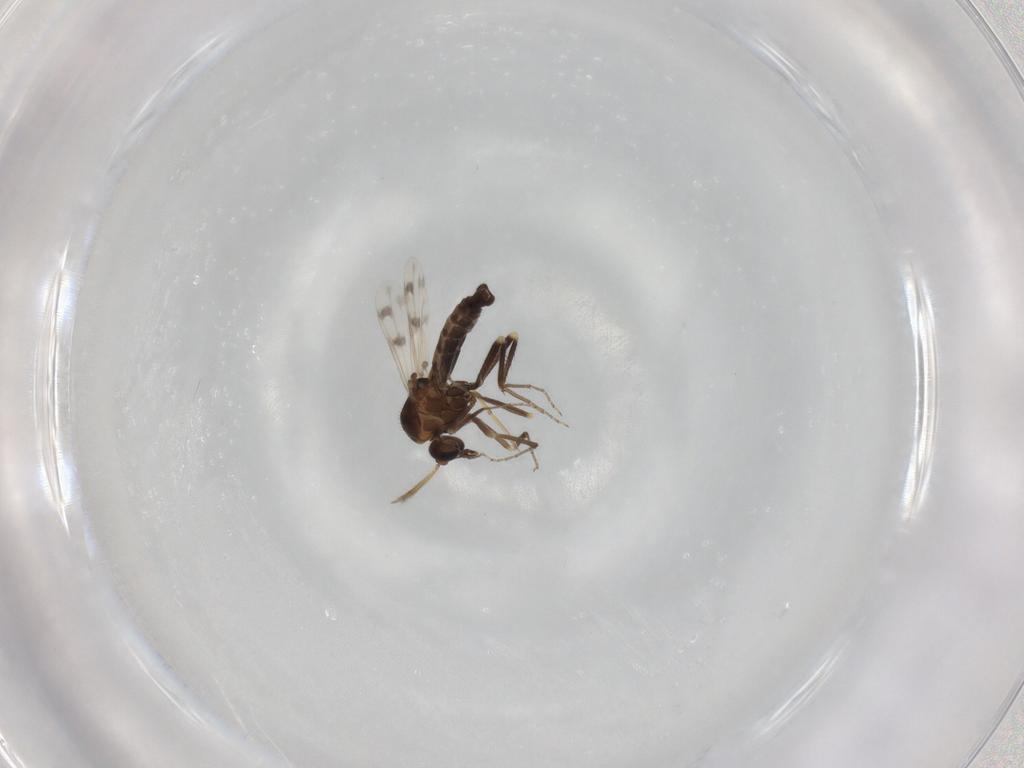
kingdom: Animalia
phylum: Arthropoda
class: Insecta
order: Diptera
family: Ceratopogonidae
